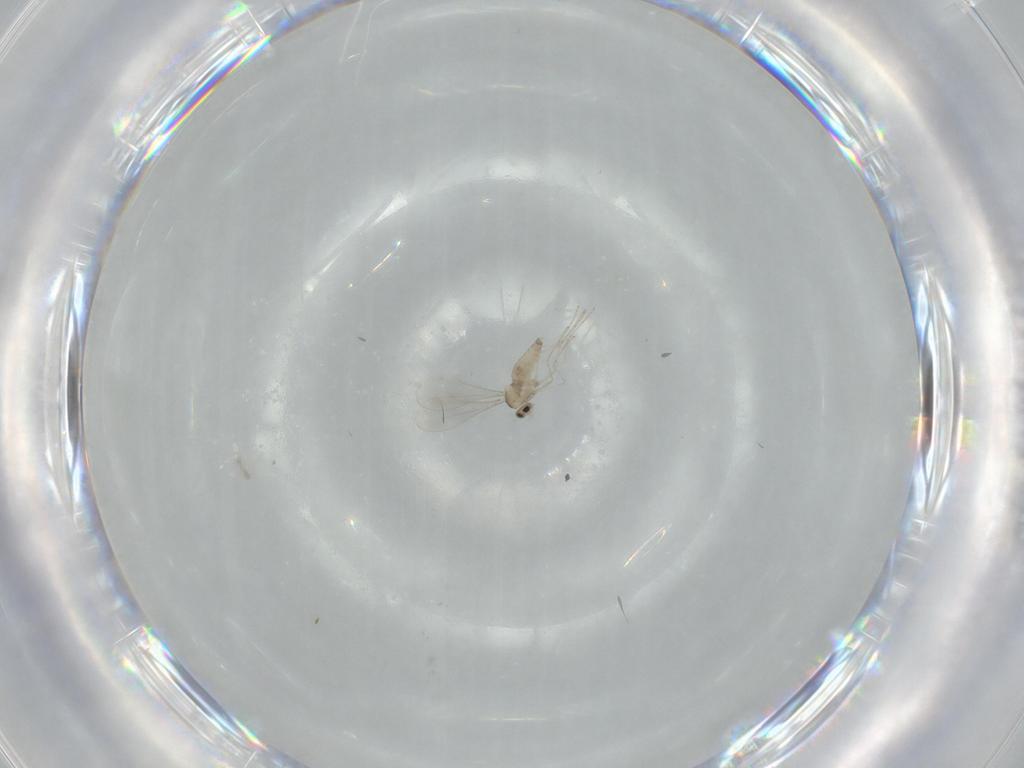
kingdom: Animalia
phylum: Arthropoda
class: Insecta
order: Diptera
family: Cecidomyiidae
